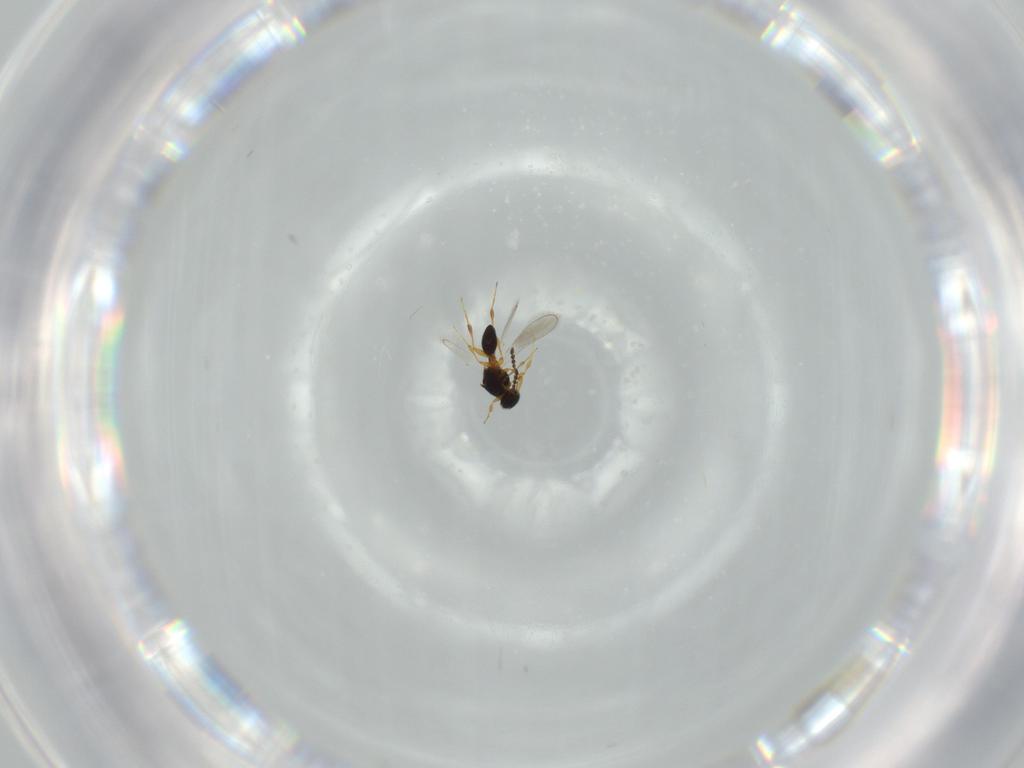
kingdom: Animalia
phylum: Arthropoda
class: Insecta
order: Hymenoptera
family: Platygastridae
